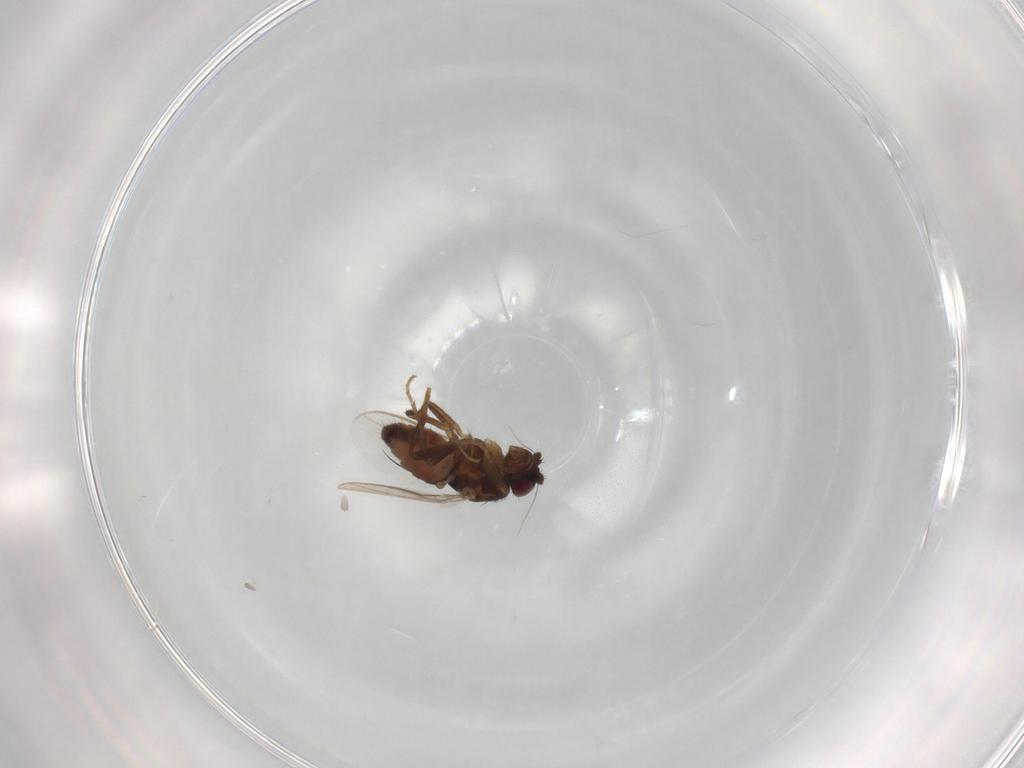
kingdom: Animalia
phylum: Arthropoda
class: Insecta
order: Diptera
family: Sphaeroceridae
